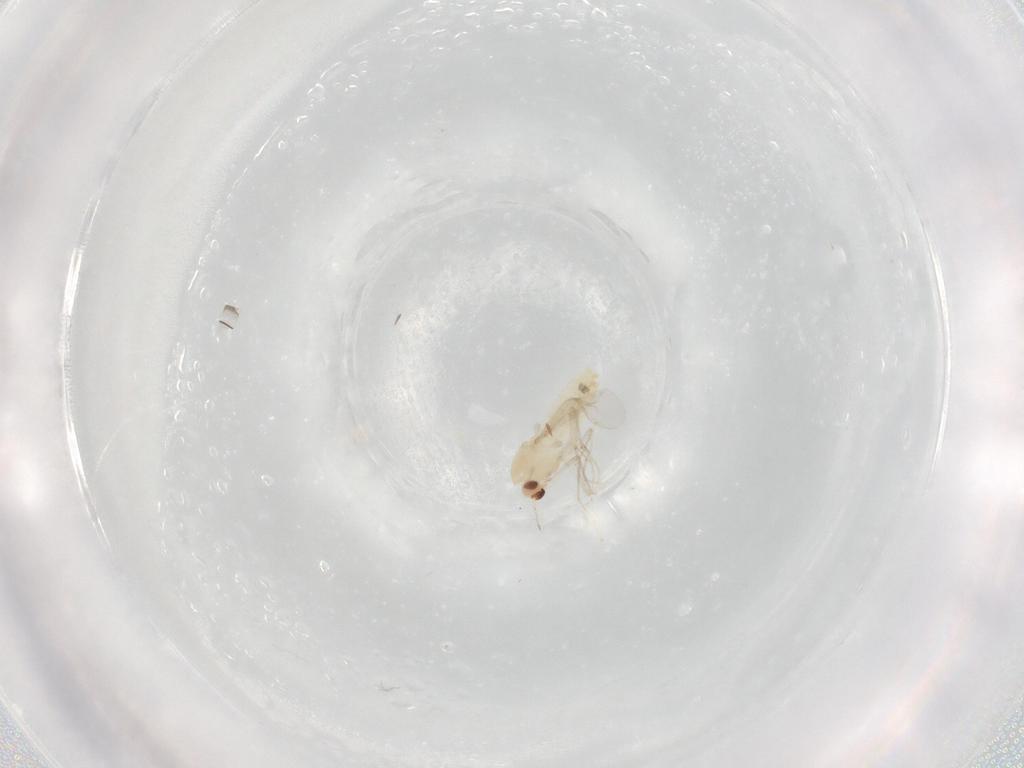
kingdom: Animalia
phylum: Arthropoda
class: Insecta
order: Diptera
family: Chironomidae
